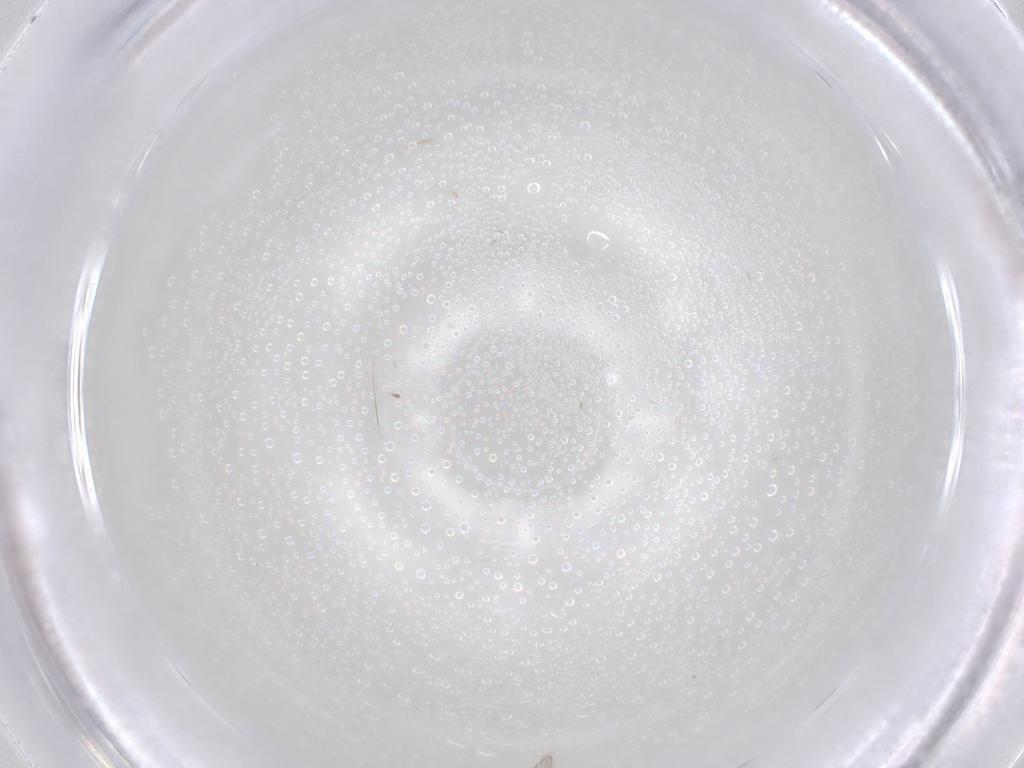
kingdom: Animalia
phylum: Arthropoda
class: Insecta
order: Hymenoptera
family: Scelionidae
